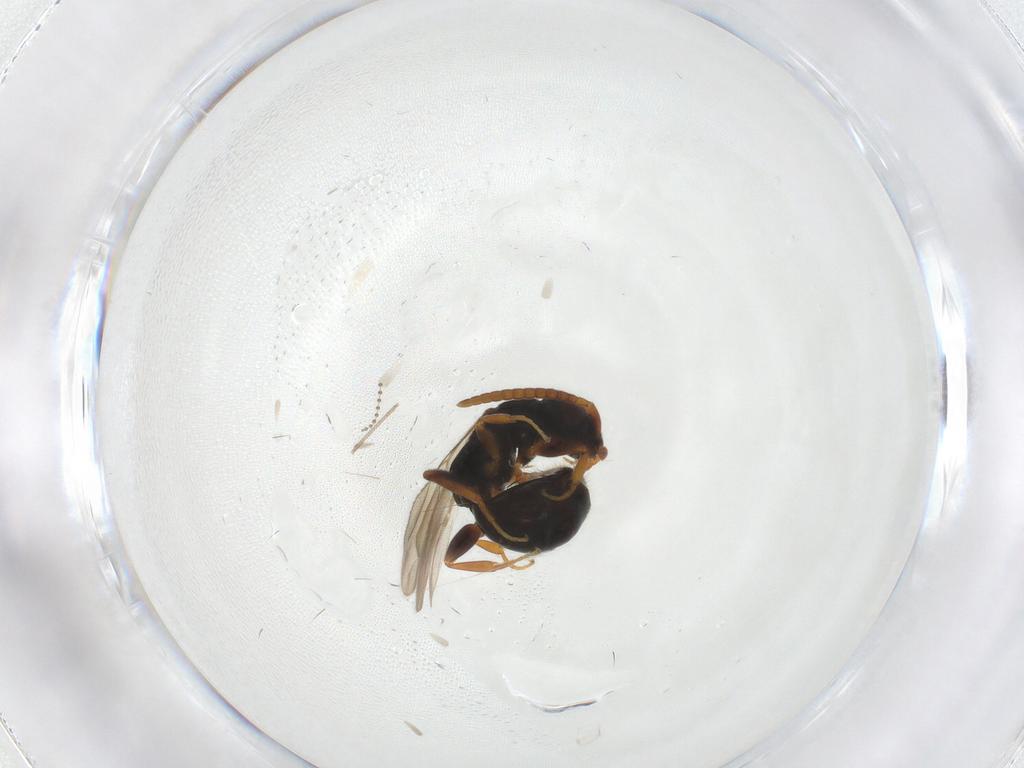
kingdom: Animalia
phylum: Arthropoda
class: Insecta
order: Hymenoptera
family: Bethylidae
